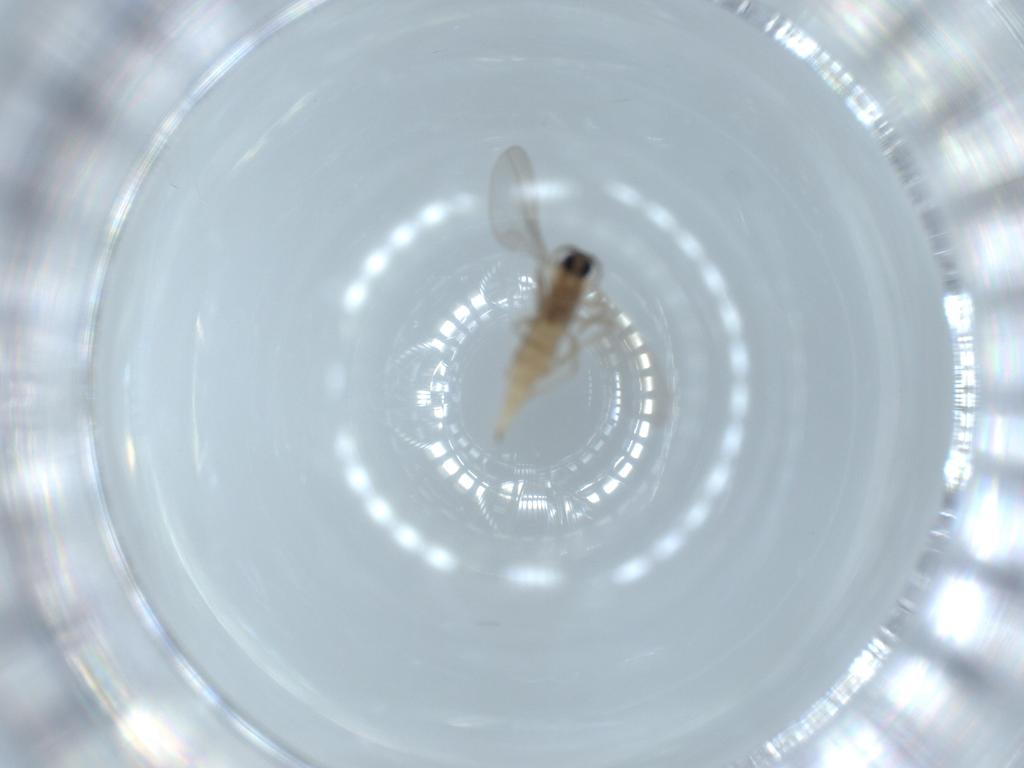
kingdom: Animalia
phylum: Arthropoda
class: Insecta
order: Diptera
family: Cecidomyiidae
